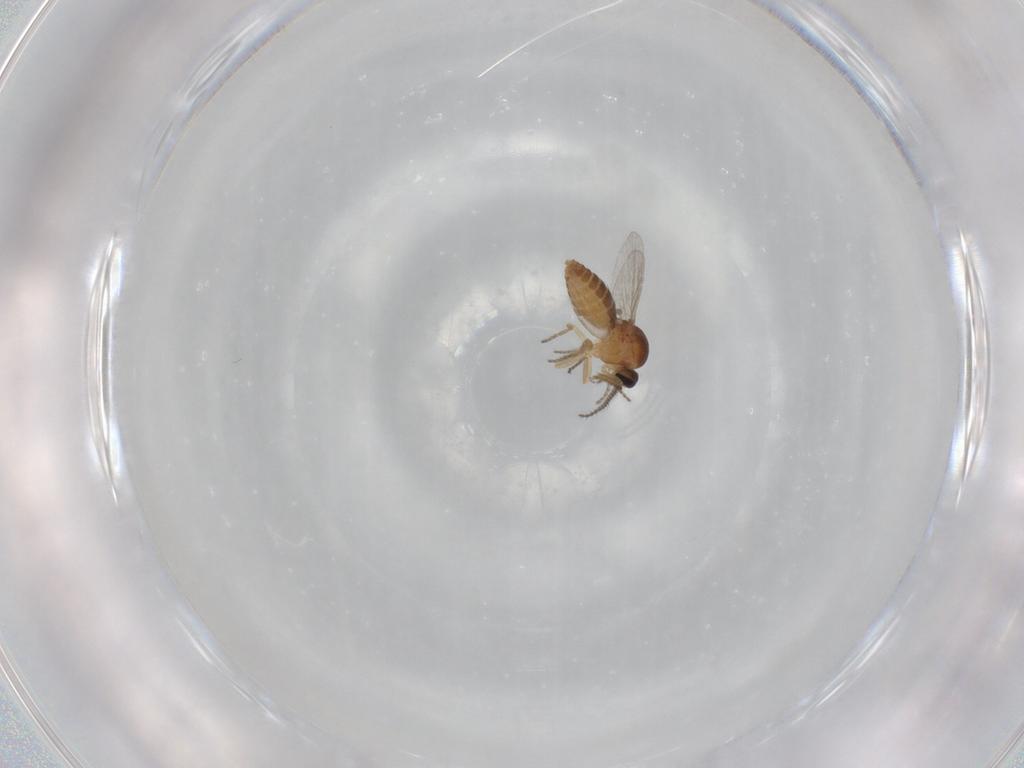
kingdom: Animalia
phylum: Arthropoda
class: Insecta
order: Diptera
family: Ceratopogonidae
